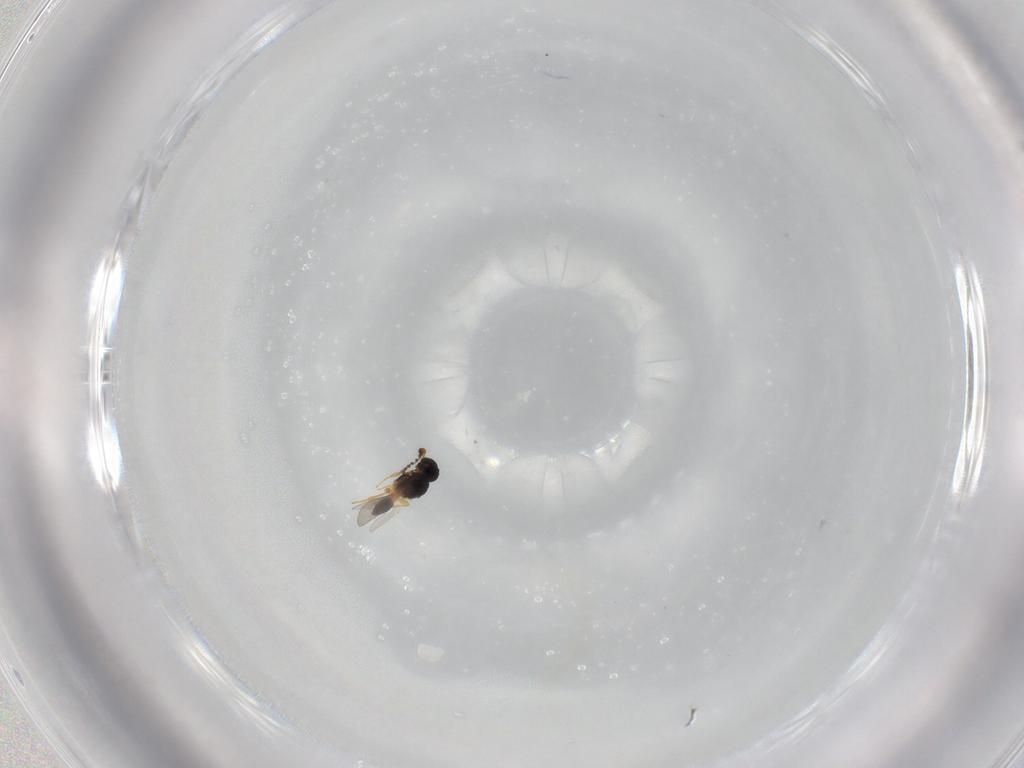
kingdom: Animalia
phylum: Arthropoda
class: Insecta
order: Hymenoptera
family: Platygastridae
